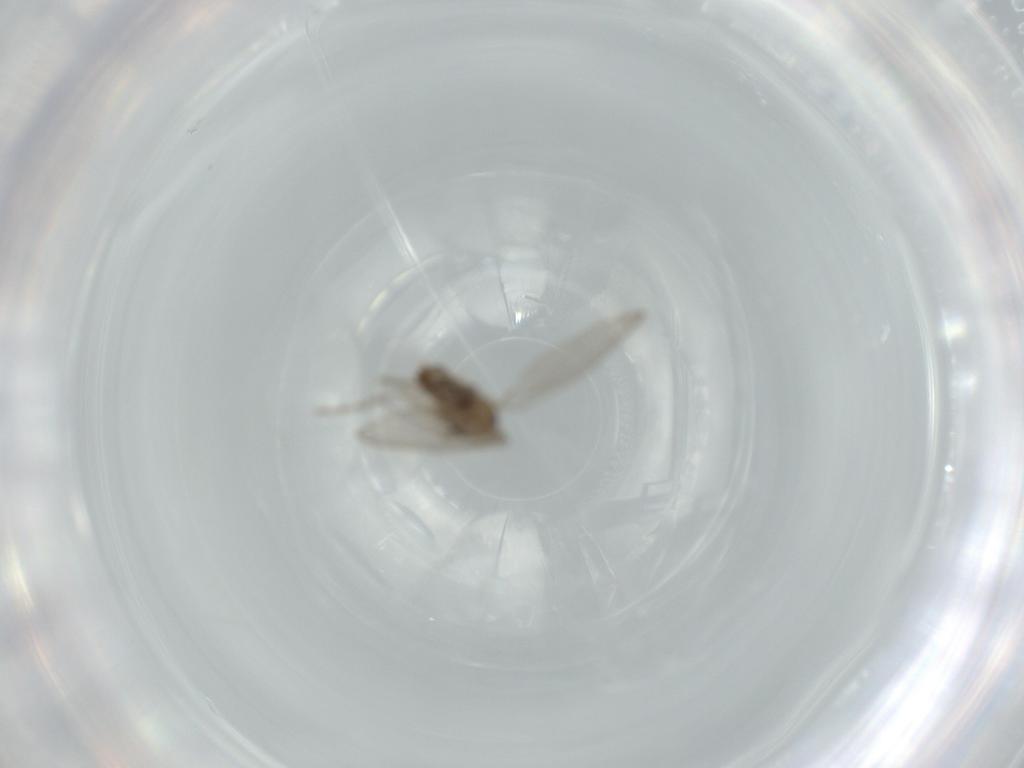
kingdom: Animalia
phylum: Arthropoda
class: Insecta
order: Diptera
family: Psychodidae
